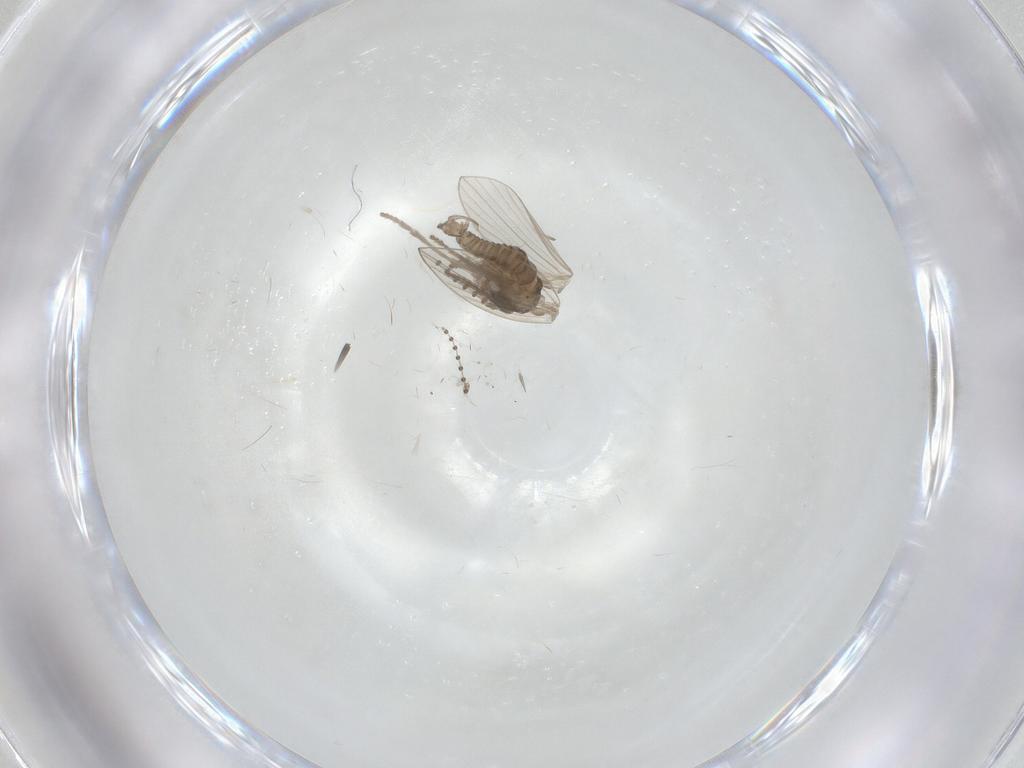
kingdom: Animalia
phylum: Arthropoda
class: Insecta
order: Diptera
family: Psychodidae
